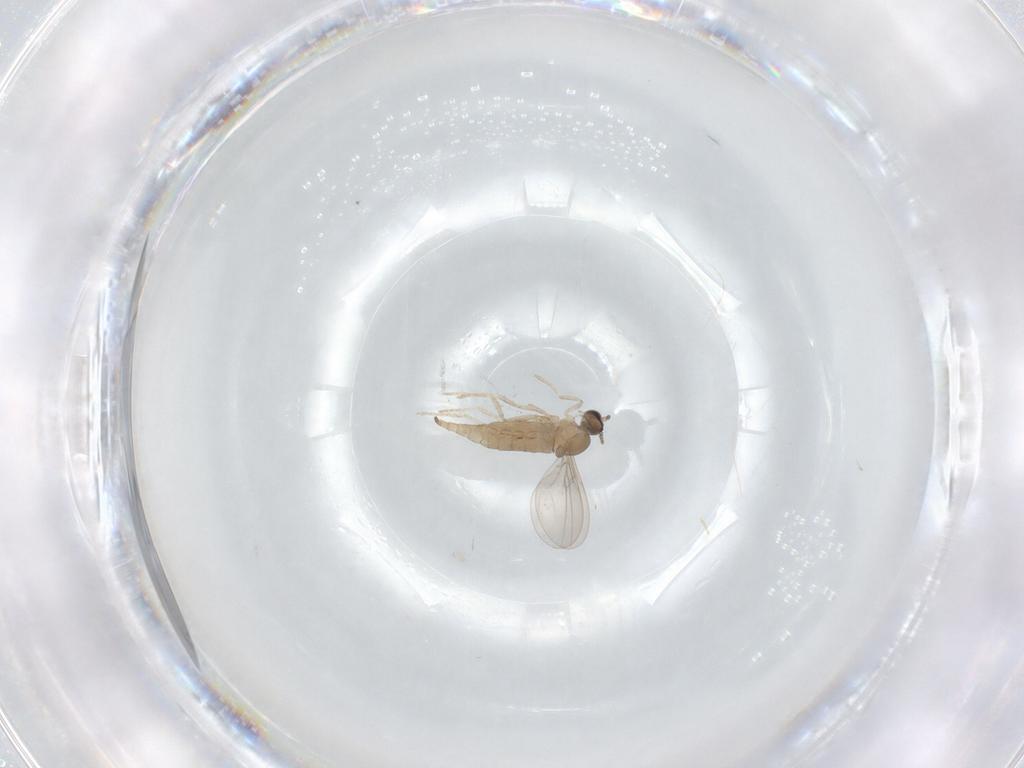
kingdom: Animalia
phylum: Arthropoda
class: Insecta
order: Diptera
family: Cecidomyiidae
